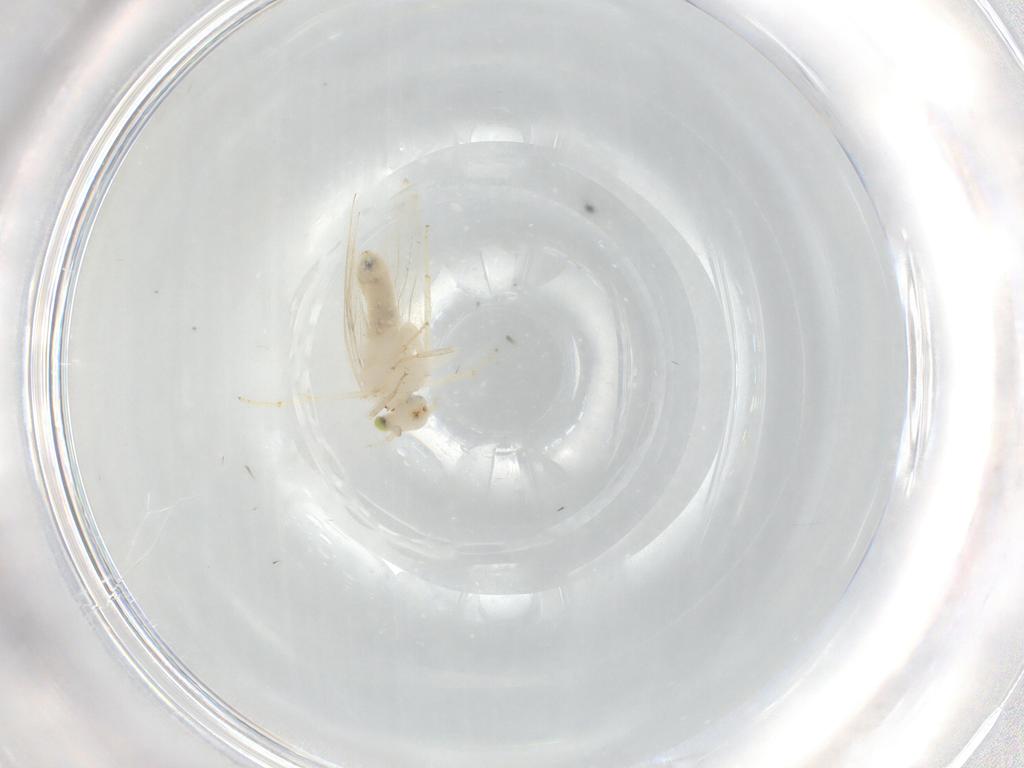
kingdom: Animalia
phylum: Arthropoda
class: Insecta
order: Psocodea
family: Lepidopsocidae
